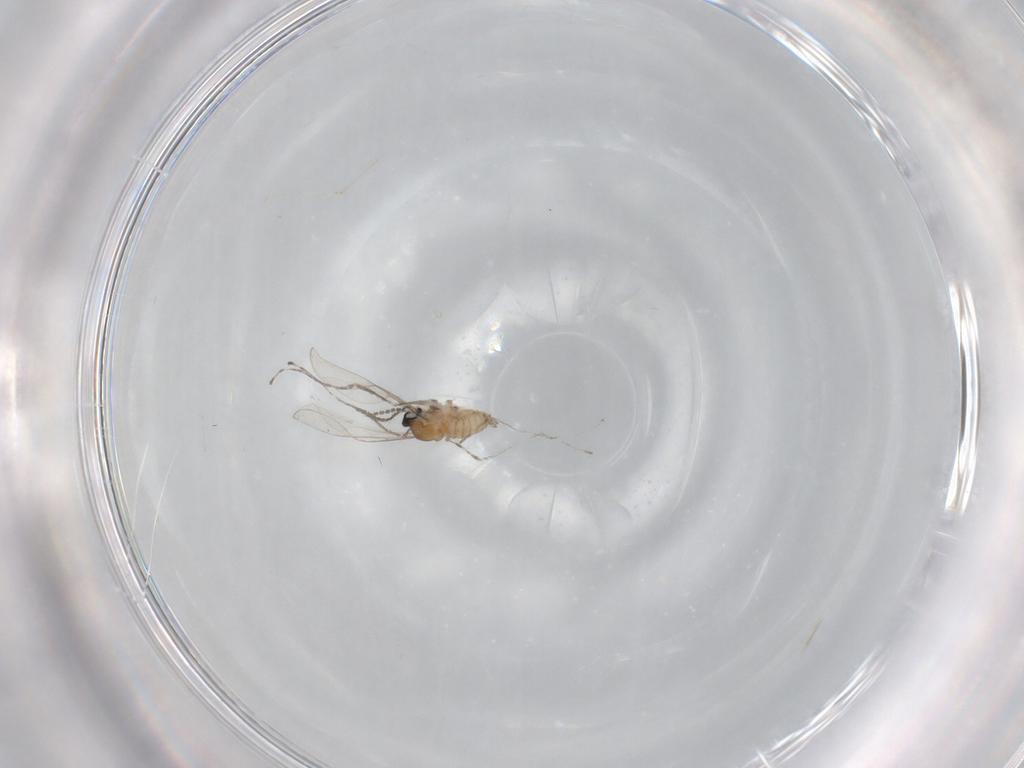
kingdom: Animalia
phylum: Arthropoda
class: Insecta
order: Diptera
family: Cecidomyiidae
